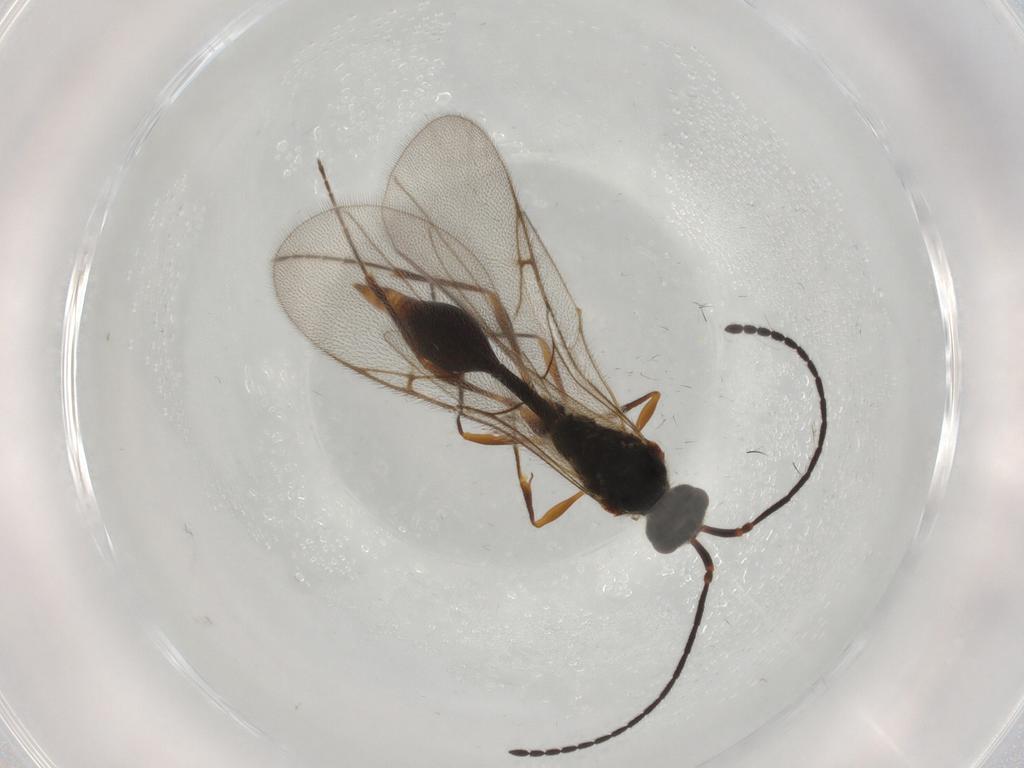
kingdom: Animalia
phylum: Arthropoda
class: Insecta
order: Hymenoptera
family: Diapriidae
